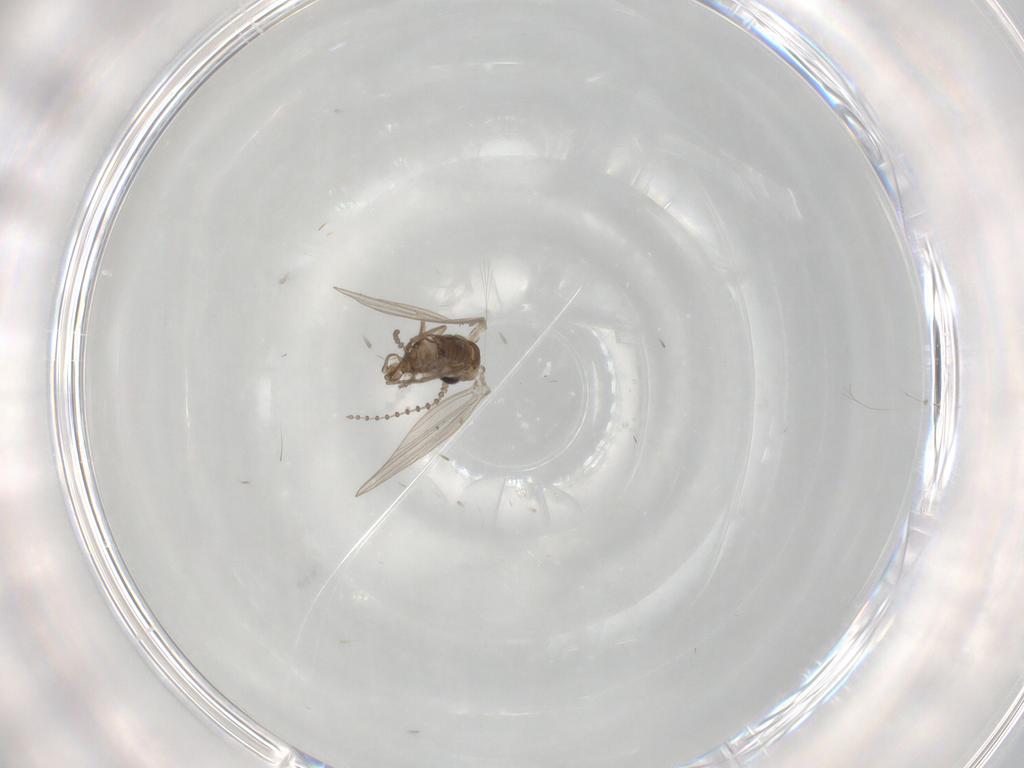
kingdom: Animalia
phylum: Arthropoda
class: Insecta
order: Diptera
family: Psychodidae
